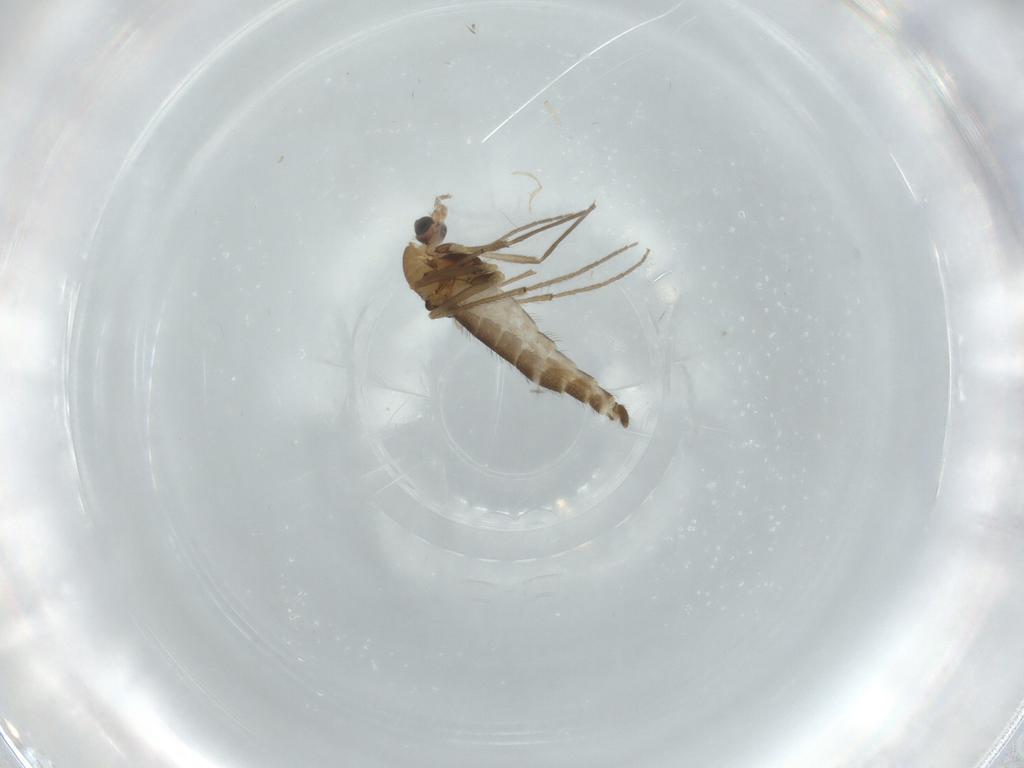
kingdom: Animalia
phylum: Arthropoda
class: Insecta
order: Diptera
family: Chironomidae
